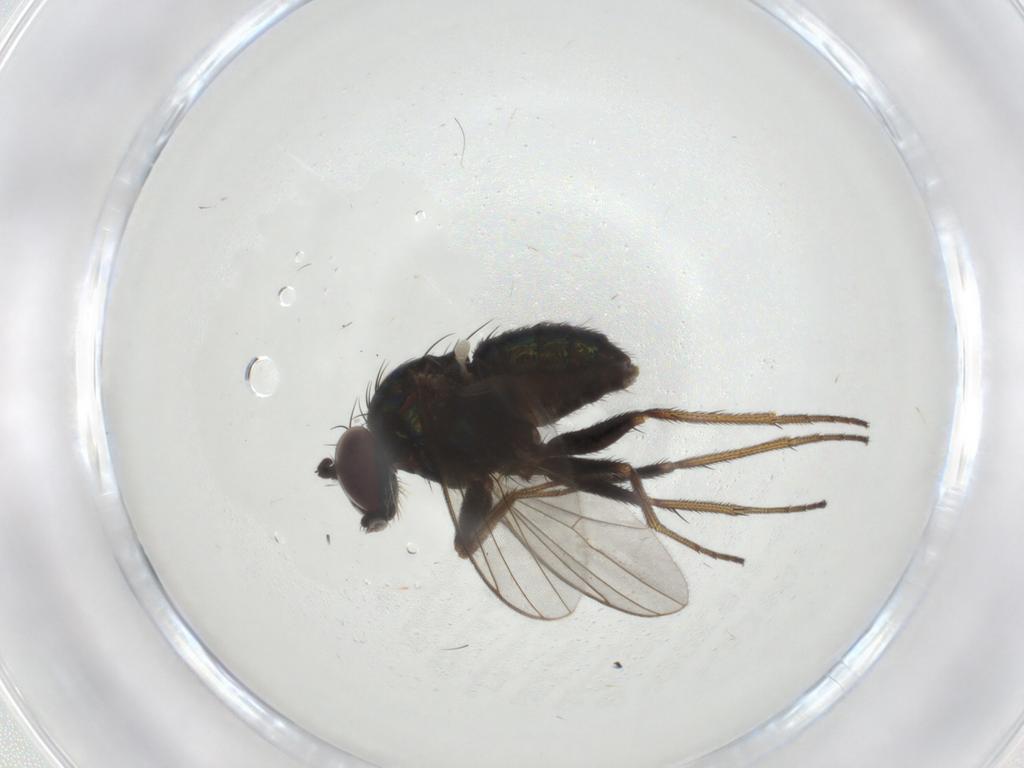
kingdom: Animalia
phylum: Arthropoda
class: Insecta
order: Diptera
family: Dolichopodidae
